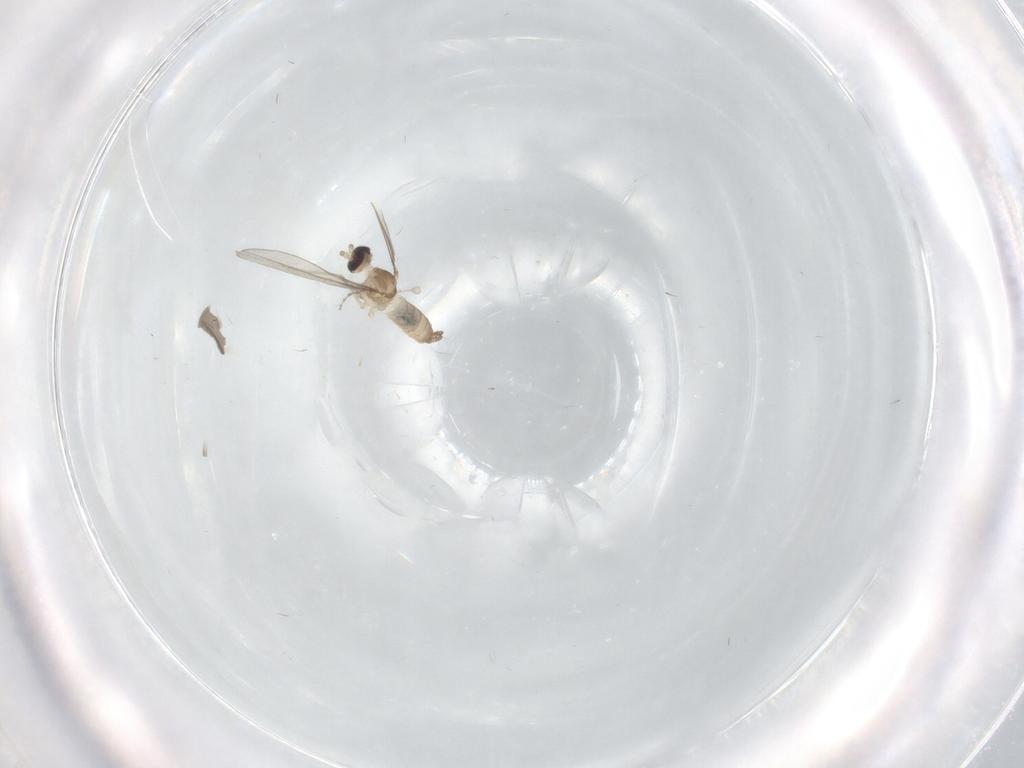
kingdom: Animalia
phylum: Arthropoda
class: Insecta
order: Diptera
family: Cecidomyiidae
